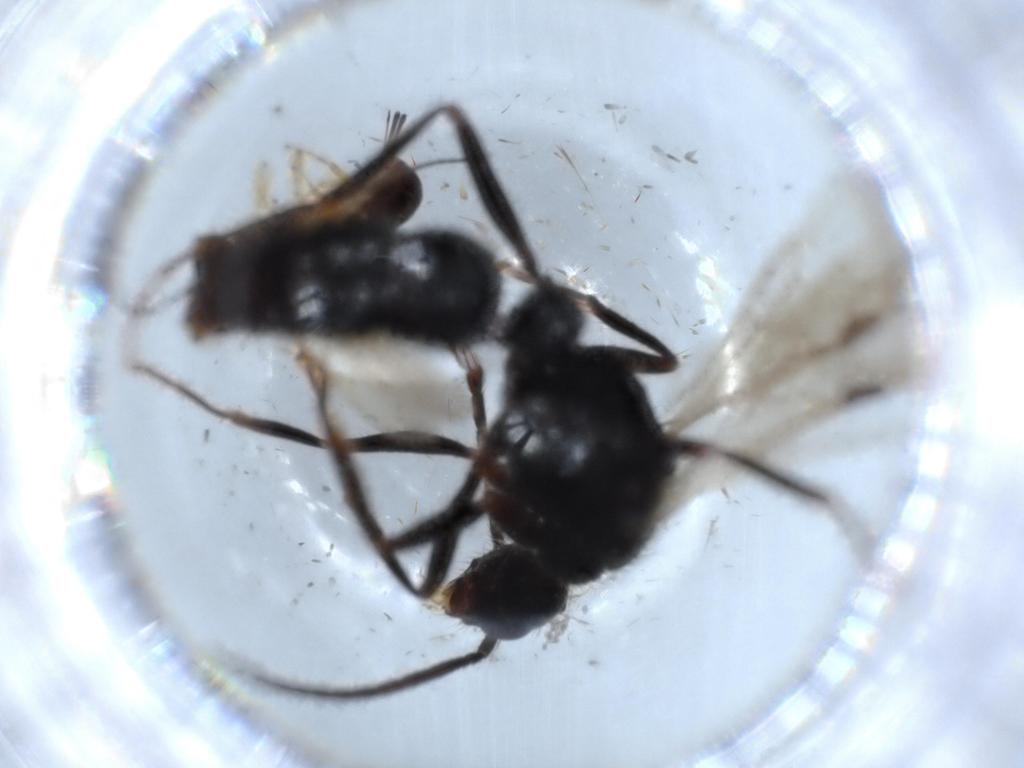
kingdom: Animalia
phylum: Arthropoda
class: Insecta
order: Hymenoptera
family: Formicidae
